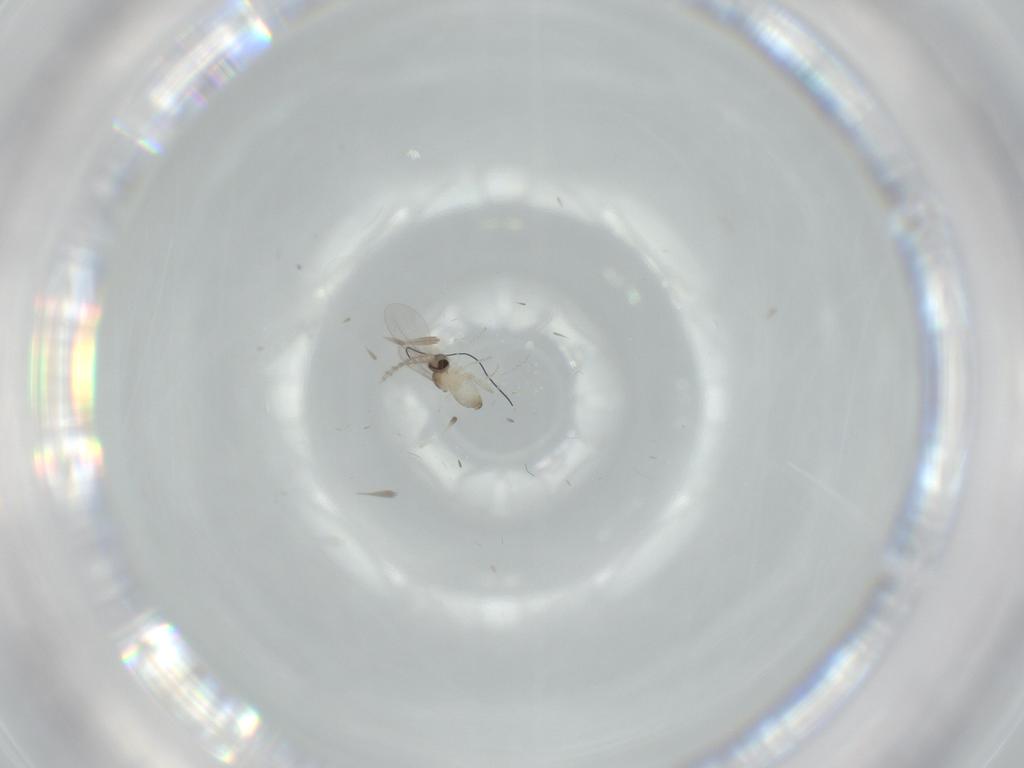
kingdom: Animalia
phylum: Arthropoda
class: Insecta
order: Diptera
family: Cecidomyiidae
